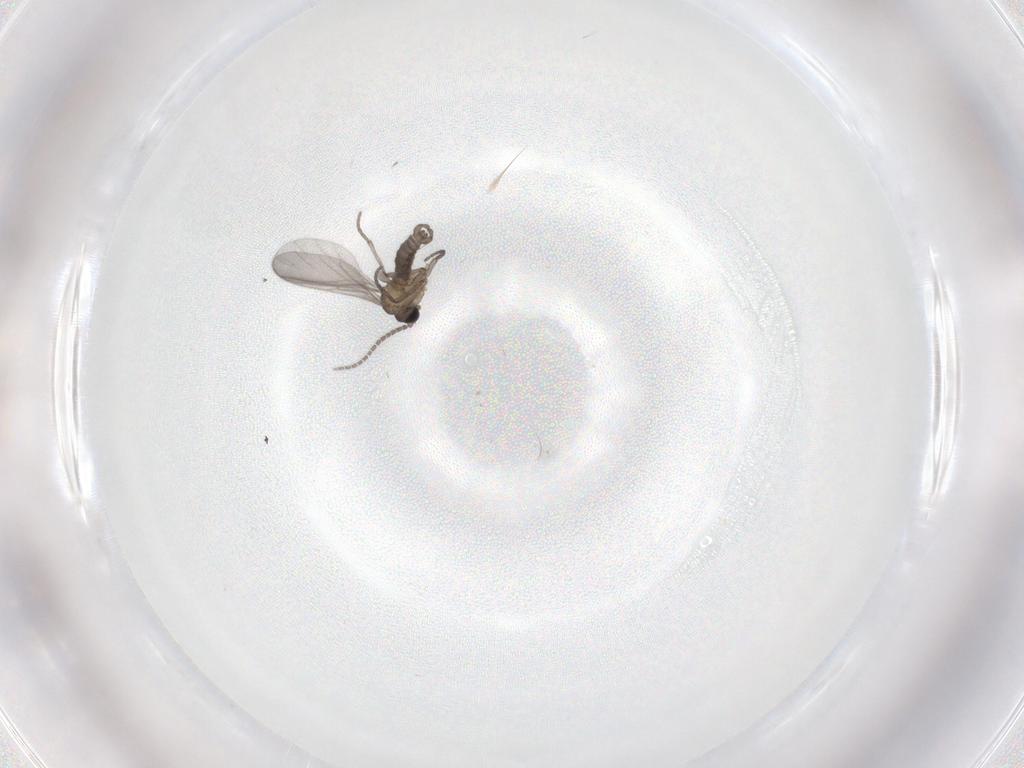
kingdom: Animalia
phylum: Arthropoda
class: Insecta
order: Diptera
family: Sciaridae
